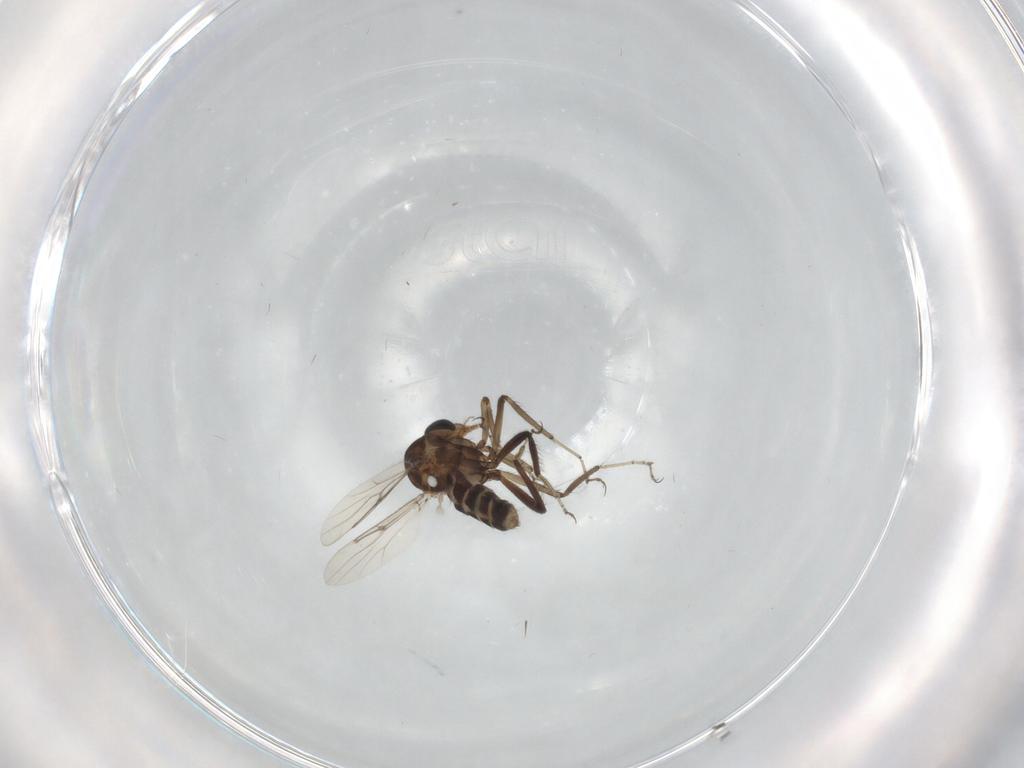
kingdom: Animalia
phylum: Arthropoda
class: Insecta
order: Diptera
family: Ceratopogonidae
